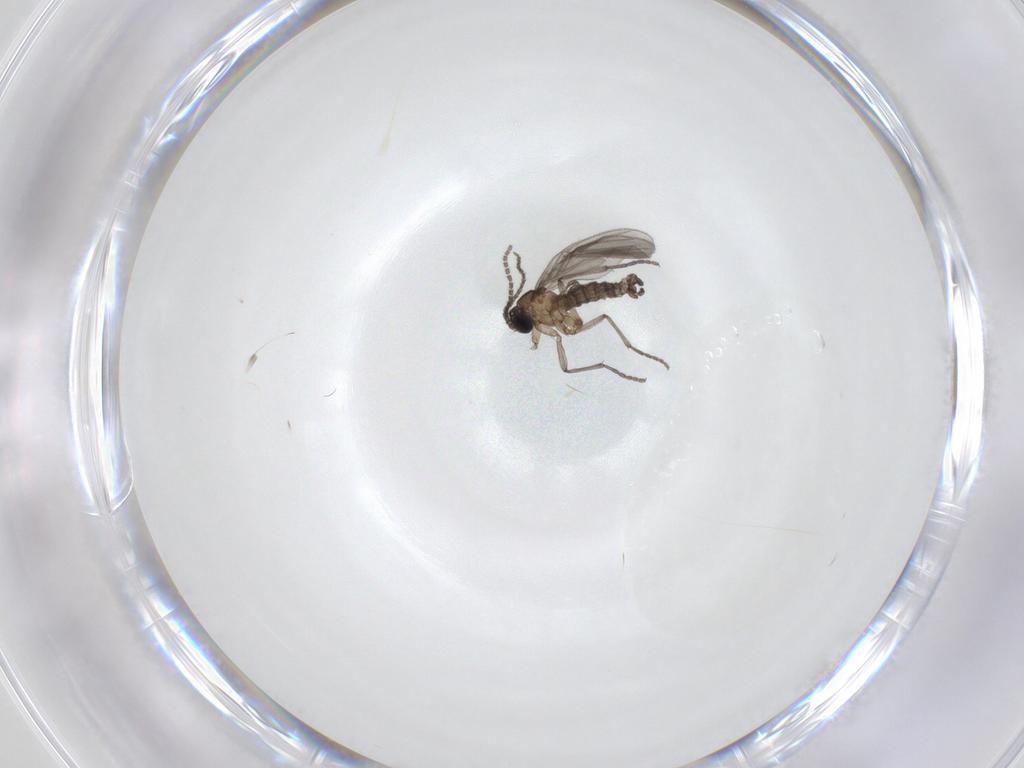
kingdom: Animalia
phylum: Arthropoda
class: Insecta
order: Diptera
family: Sciaridae
